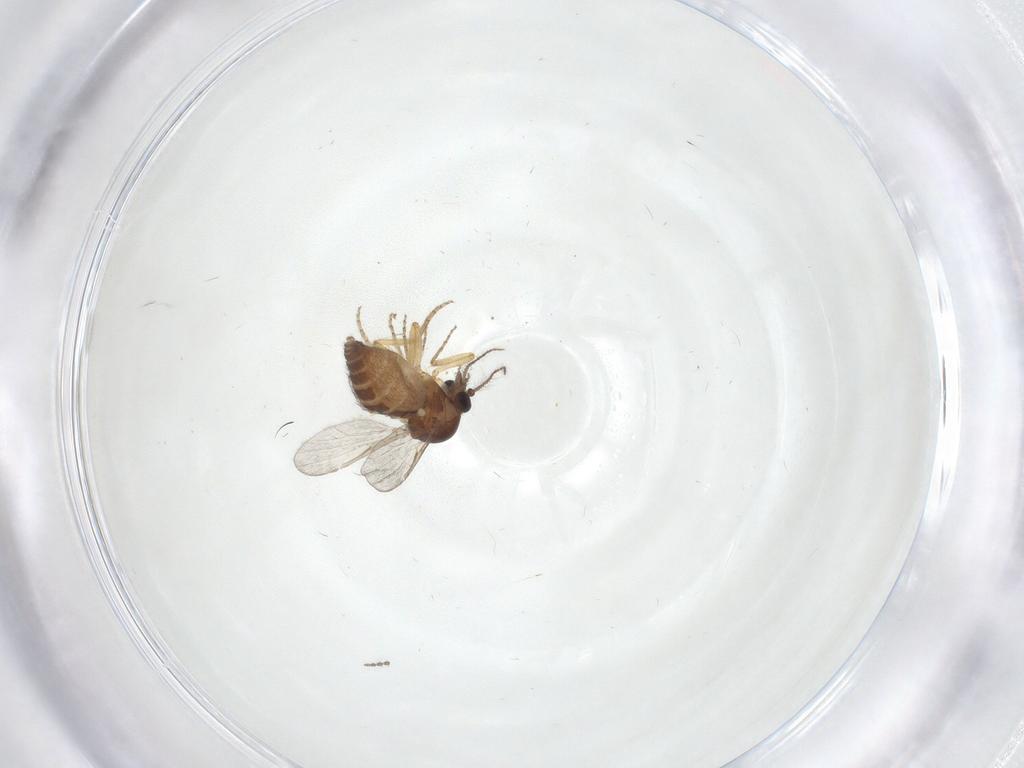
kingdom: Animalia
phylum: Arthropoda
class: Insecta
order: Diptera
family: Ceratopogonidae
